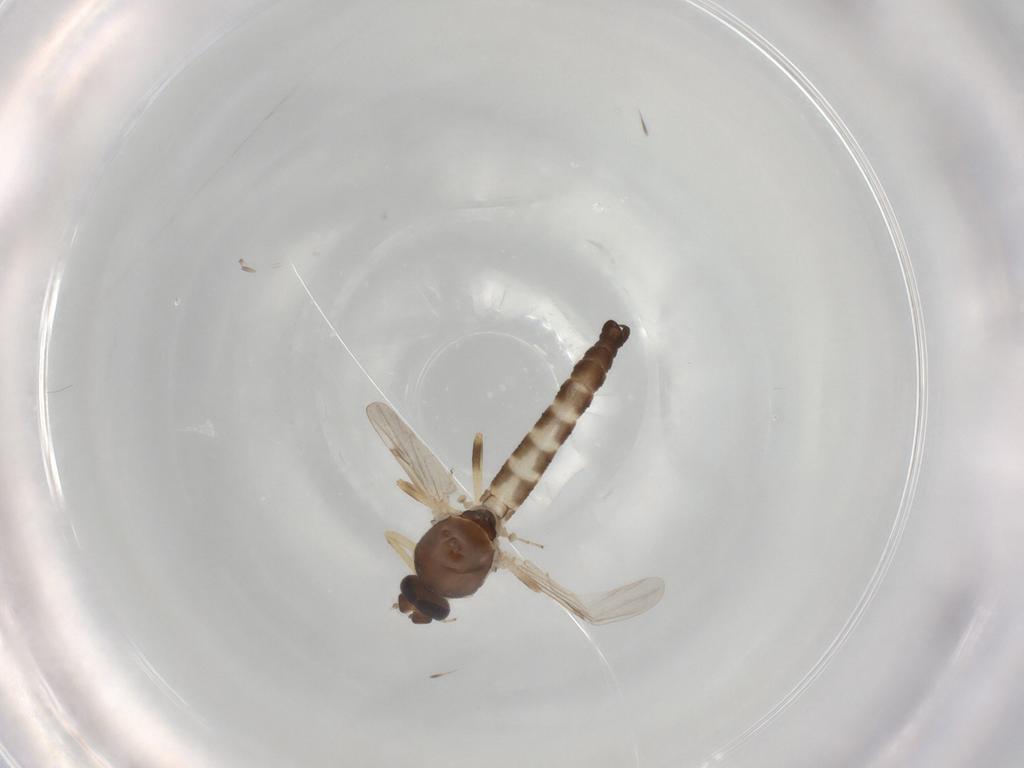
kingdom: Animalia
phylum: Arthropoda
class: Insecta
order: Diptera
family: Ceratopogonidae
